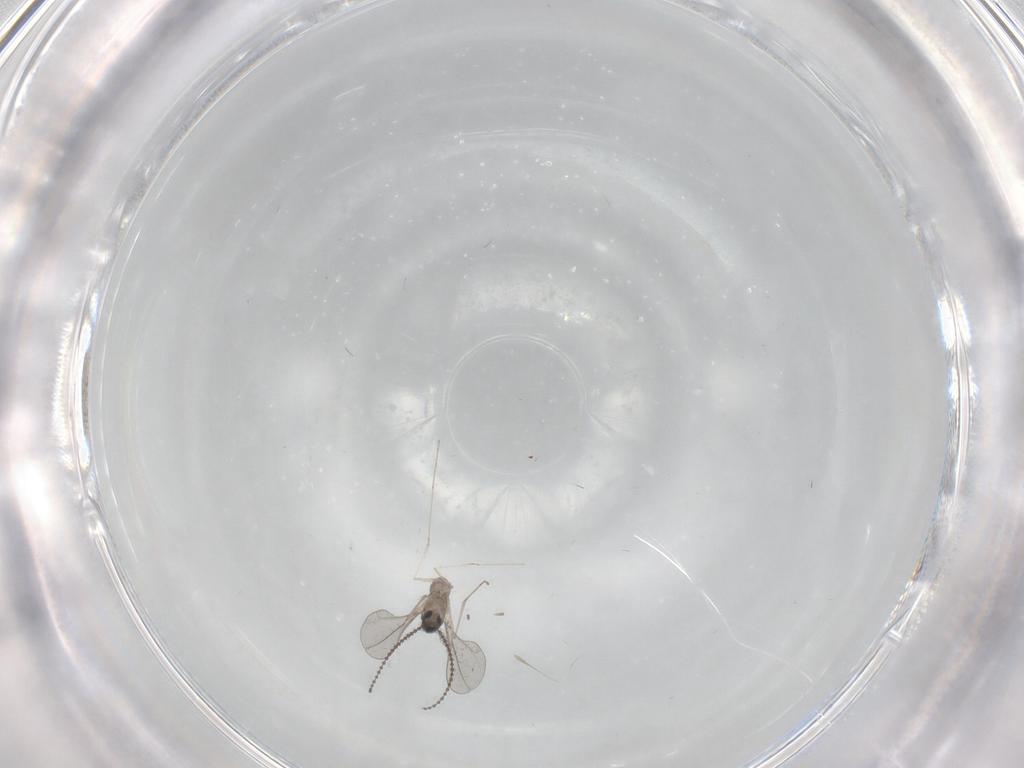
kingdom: Animalia
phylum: Arthropoda
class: Insecta
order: Diptera
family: Cecidomyiidae
